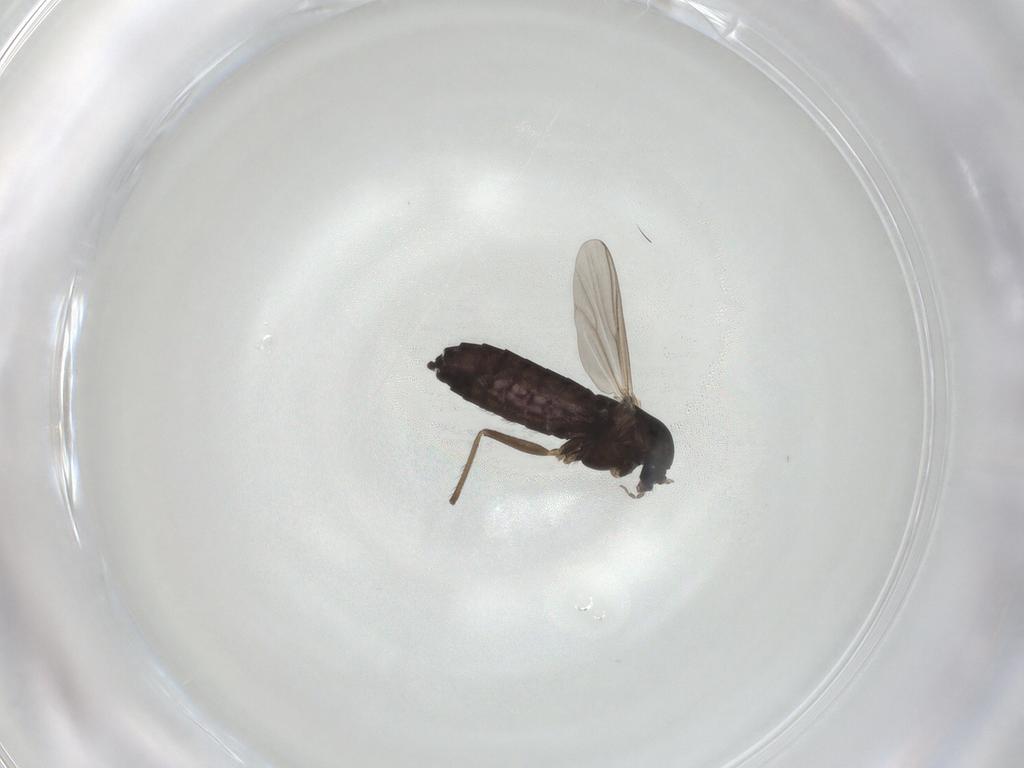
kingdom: Animalia
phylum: Arthropoda
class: Insecta
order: Diptera
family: Chironomidae
